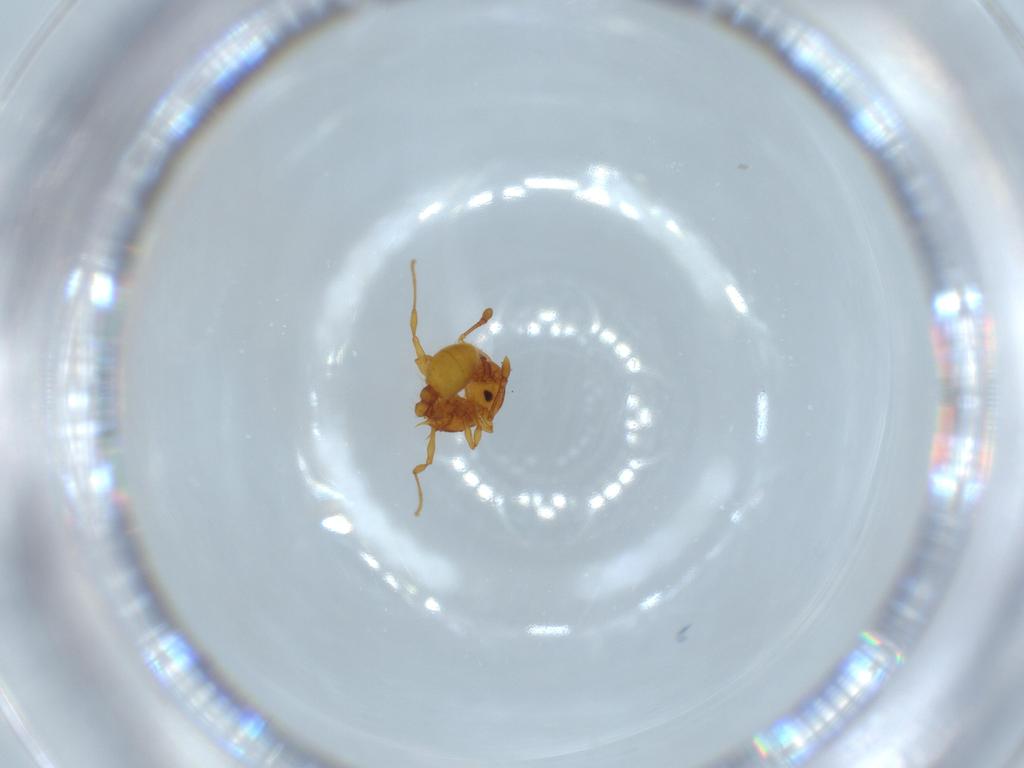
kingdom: Animalia
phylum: Arthropoda
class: Insecta
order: Hymenoptera
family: Formicidae
